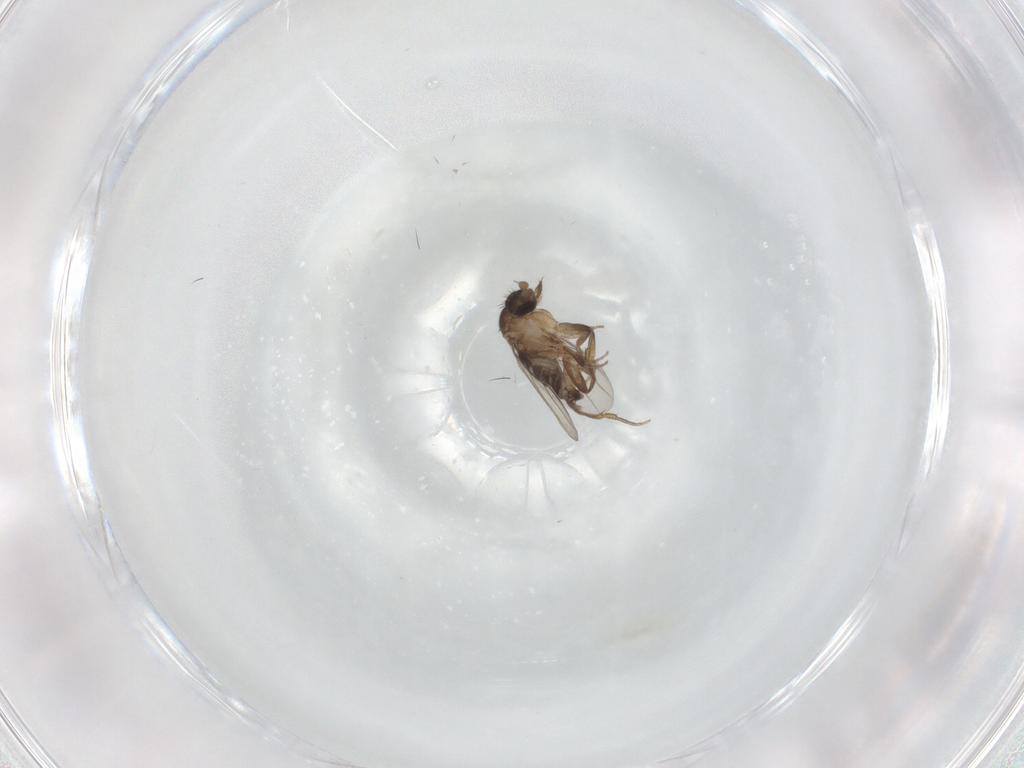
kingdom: Animalia
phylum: Arthropoda
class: Insecta
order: Diptera
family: Phoridae
